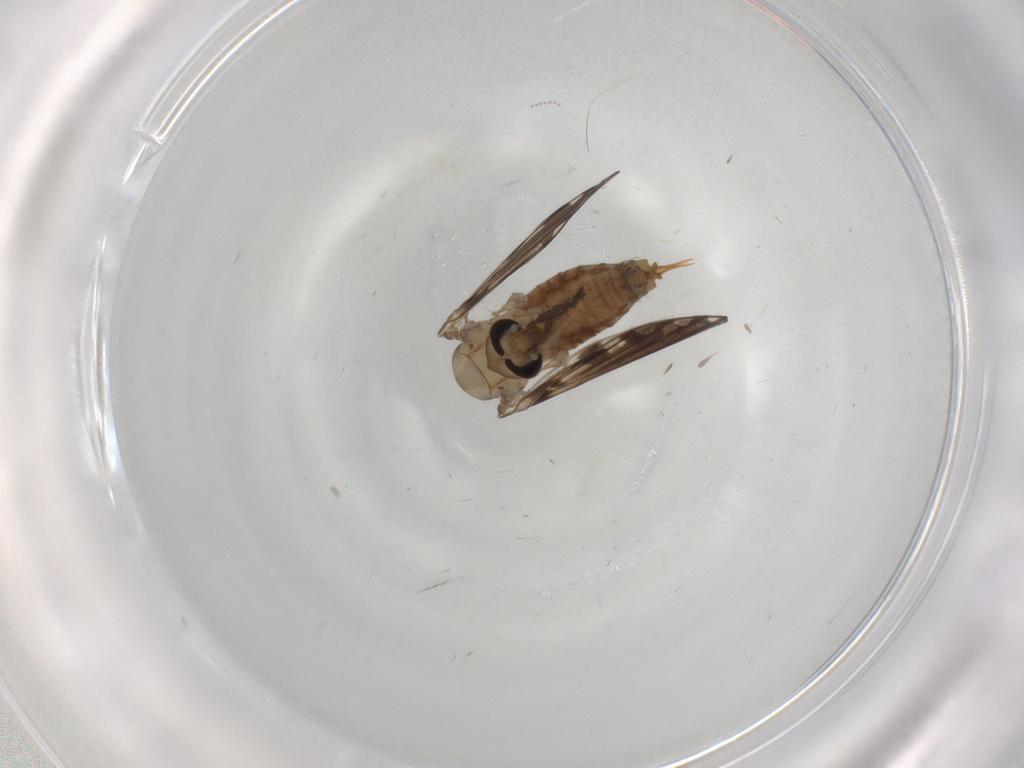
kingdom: Animalia
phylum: Arthropoda
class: Insecta
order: Diptera
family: Psychodidae
